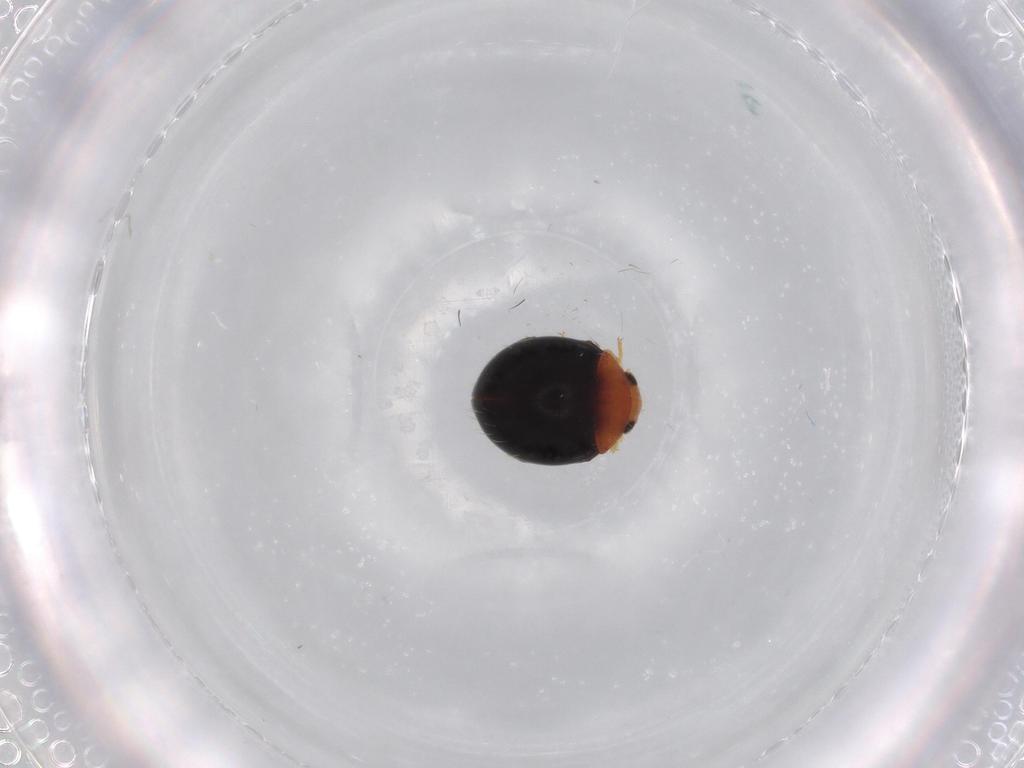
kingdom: Animalia
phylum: Arthropoda
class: Insecta
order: Coleoptera
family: Coccinellidae
